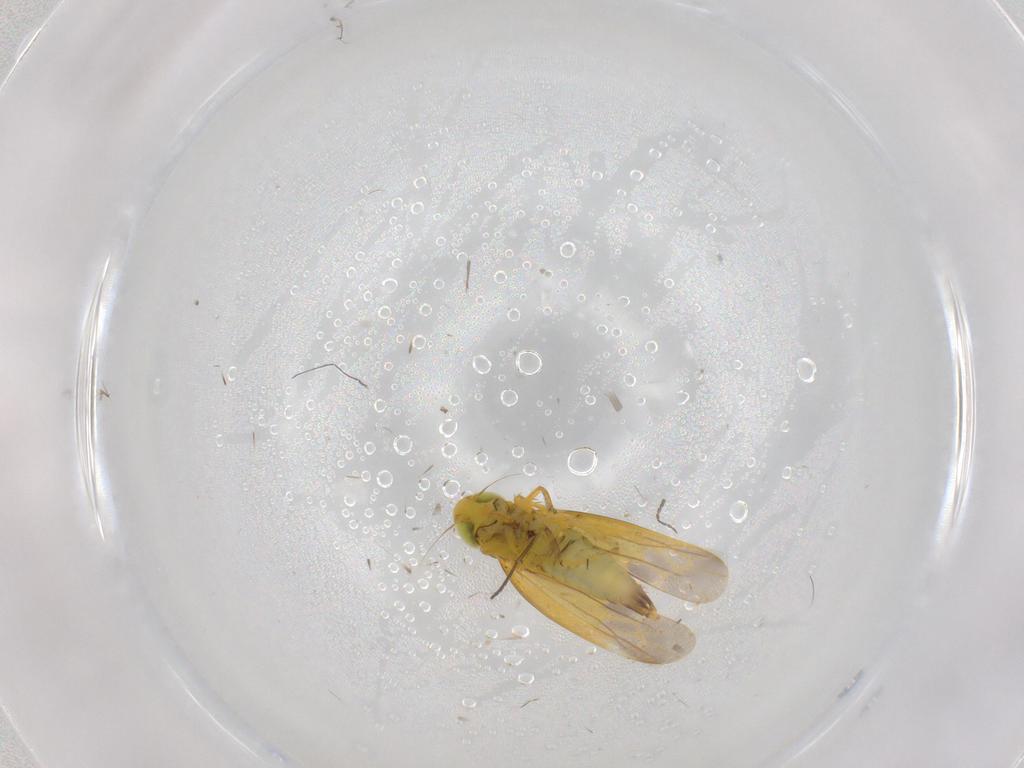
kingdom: Animalia
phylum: Arthropoda
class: Insecta
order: Hemiptera
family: Cicadellidae
